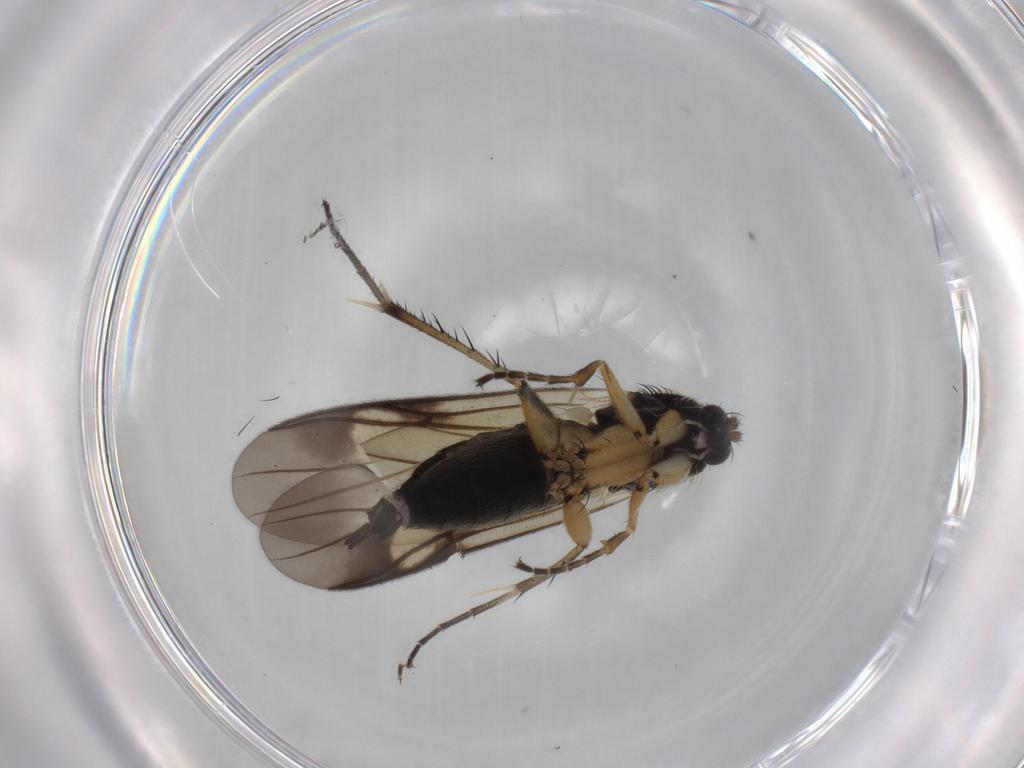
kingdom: Animalia
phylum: Arthropoda
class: Insecta
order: Diptera
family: Mycetophilidae
